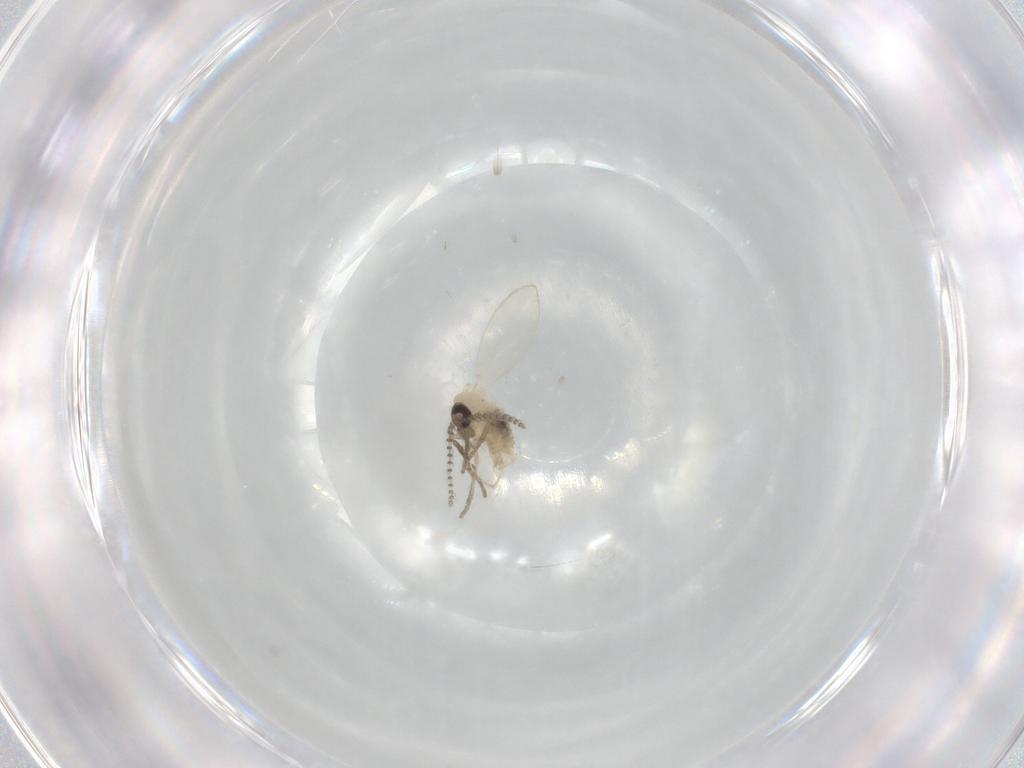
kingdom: Animalia
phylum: Arthropoda
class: Insecta
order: Diptera
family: Psychodidae
